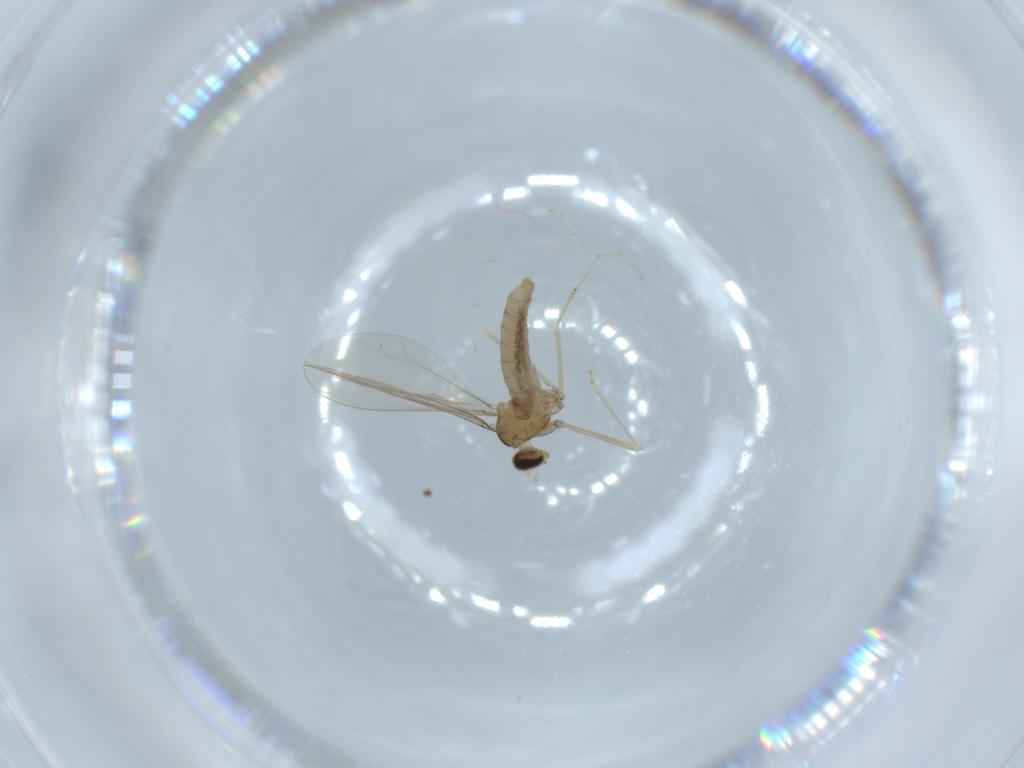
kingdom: Animalia
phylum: Arthropoda
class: Insecta
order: Diptera
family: Cecidomyiidae
